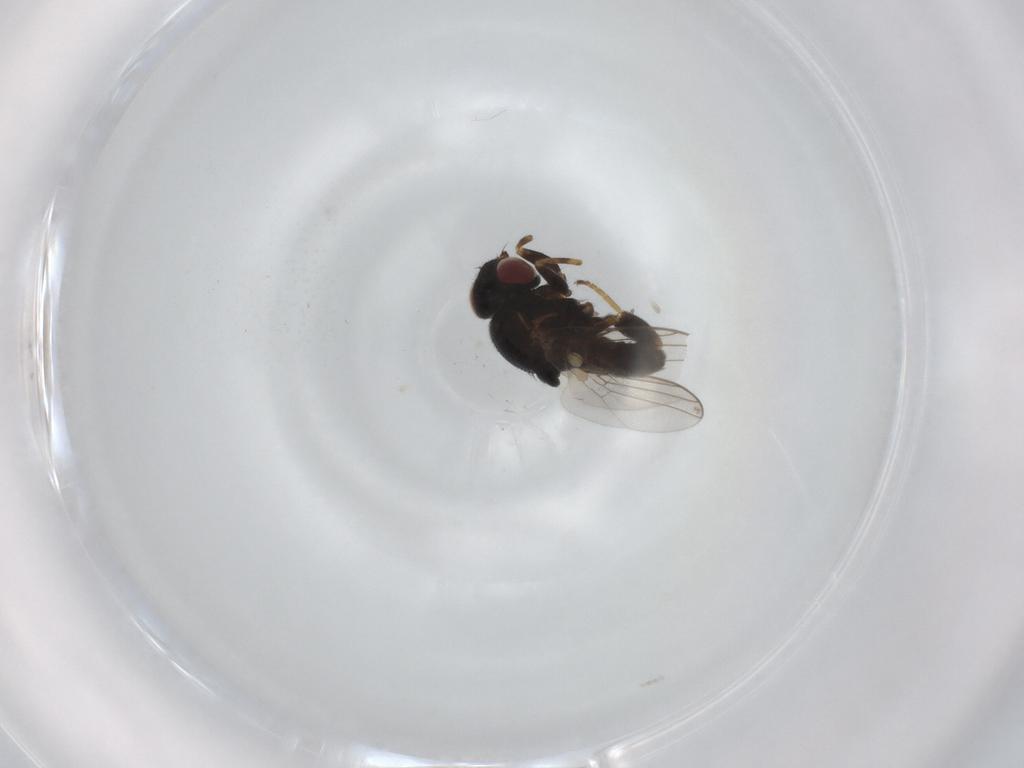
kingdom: Animalia
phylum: Arthropoda
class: Insecta
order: Diptera
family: Chloropidae
